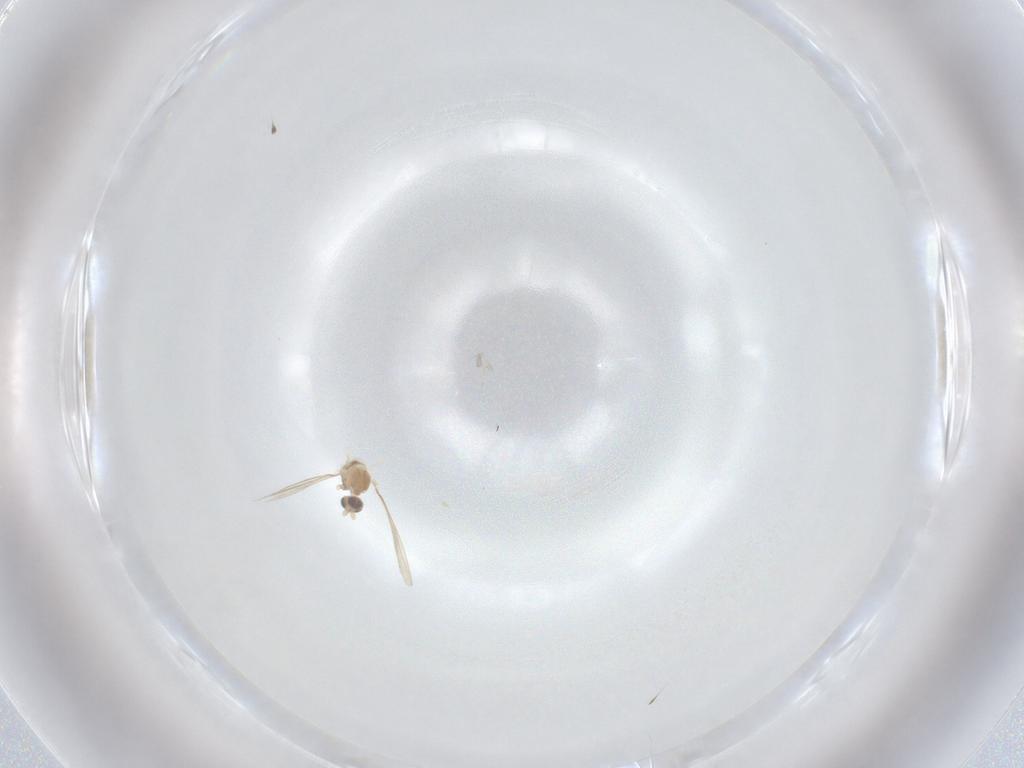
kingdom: Animalia
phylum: Arthropoda
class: Insecta
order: Diptera
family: Cecidomyiidae
